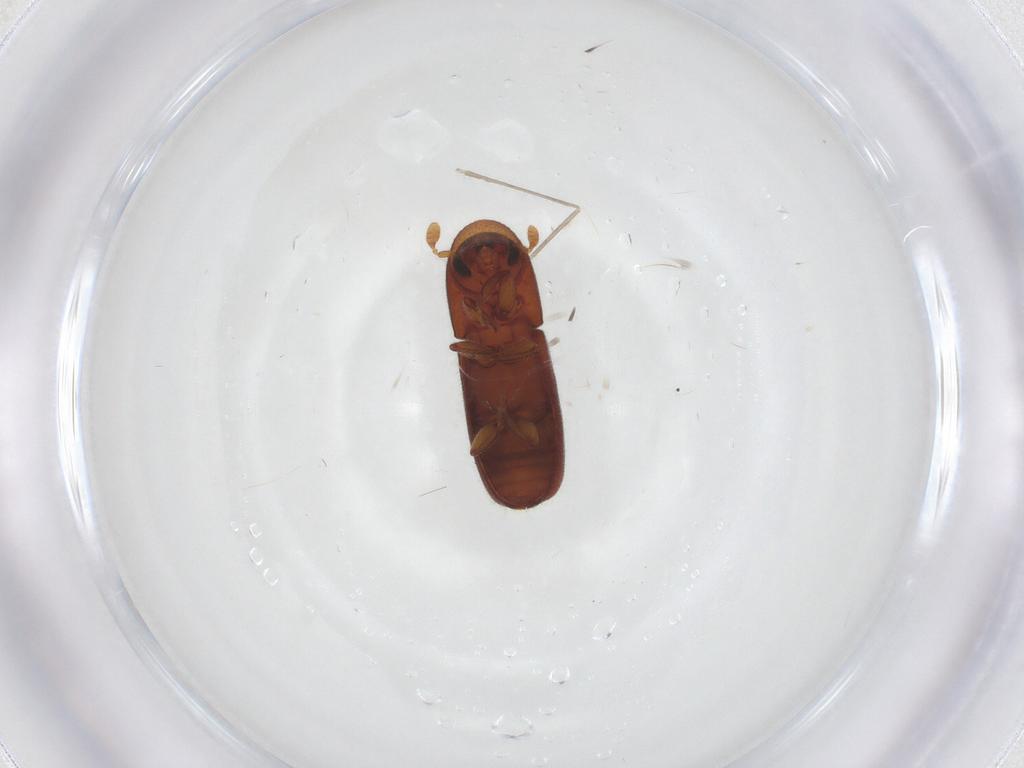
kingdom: Animalia
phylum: Arthropoda
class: Insecta
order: Coleoptera
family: Curculionidae
